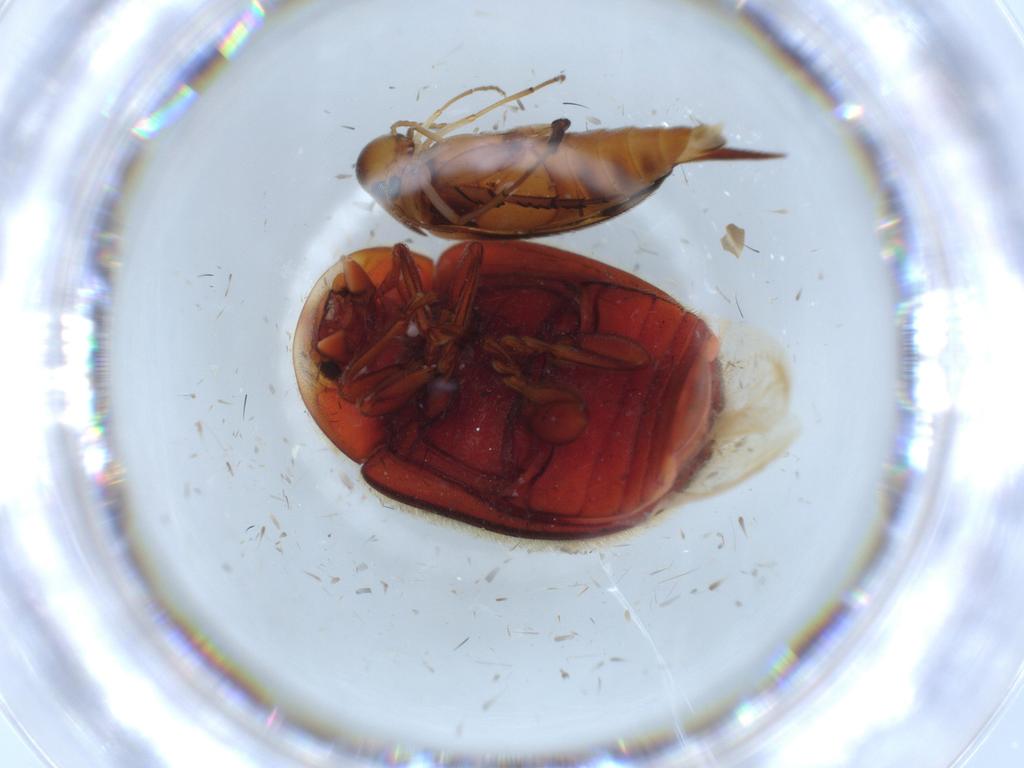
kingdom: Animalia
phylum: Arthropoda
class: Insecta
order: Coleoptera
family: Mordellidae
